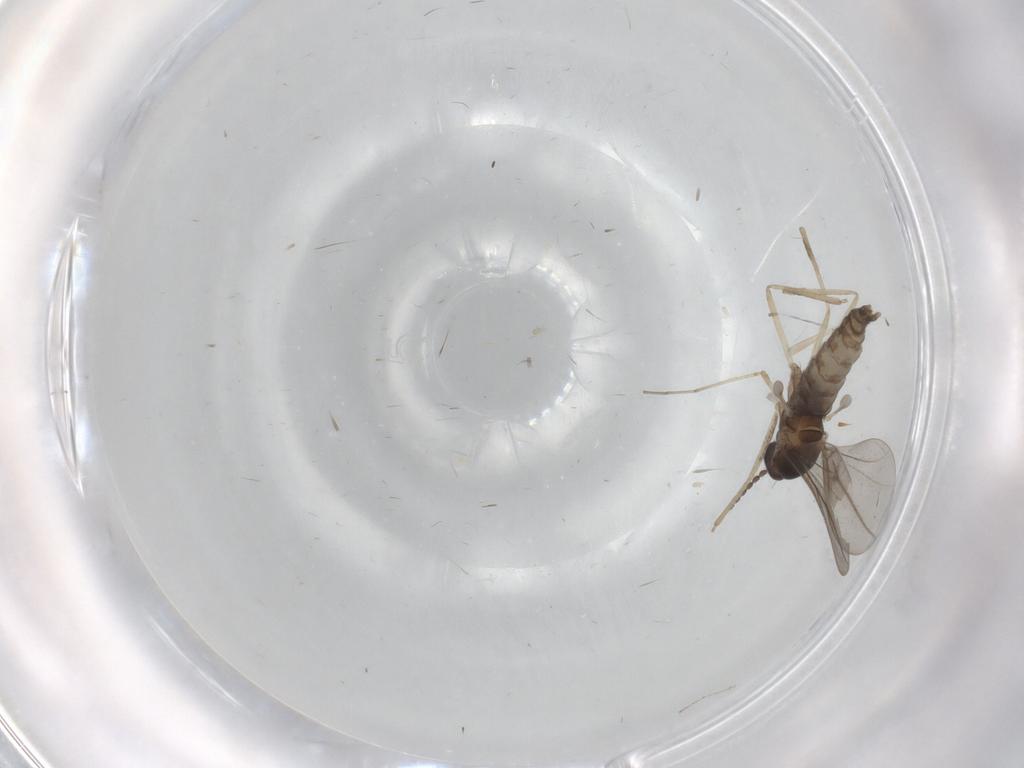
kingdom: Animalia
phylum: Arthropoda
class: Insecta
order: Diptera
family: Cecidomyiidae
